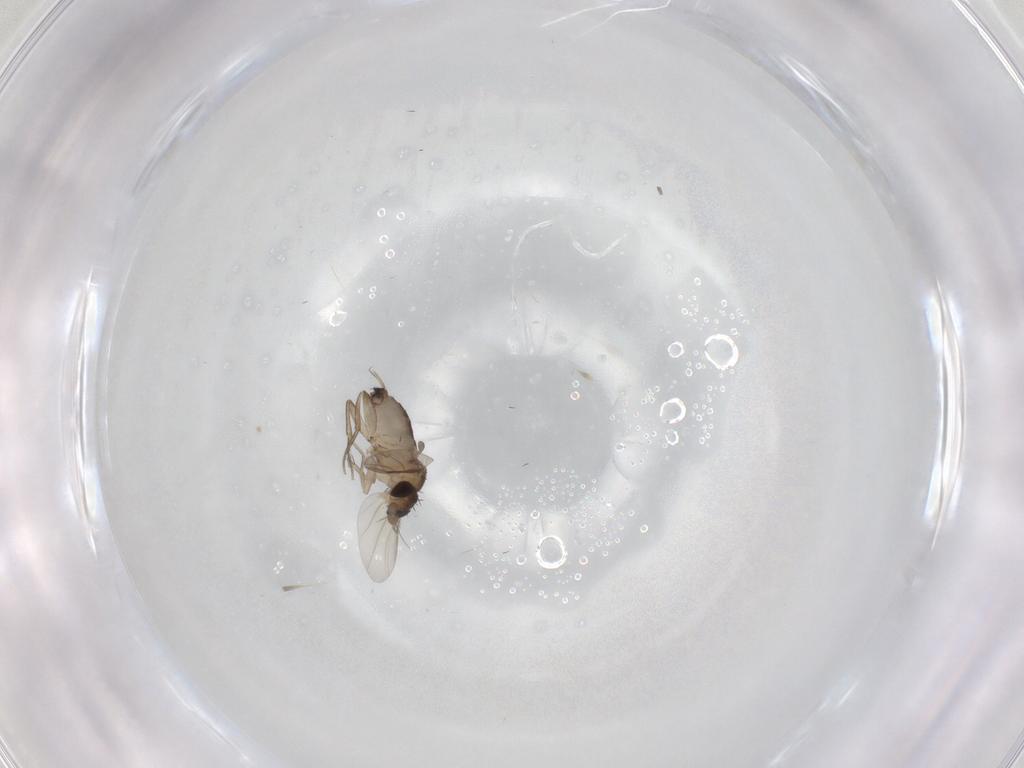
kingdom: Animalia
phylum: Arthropoda
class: Insecta
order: Diptera
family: Phoridae
